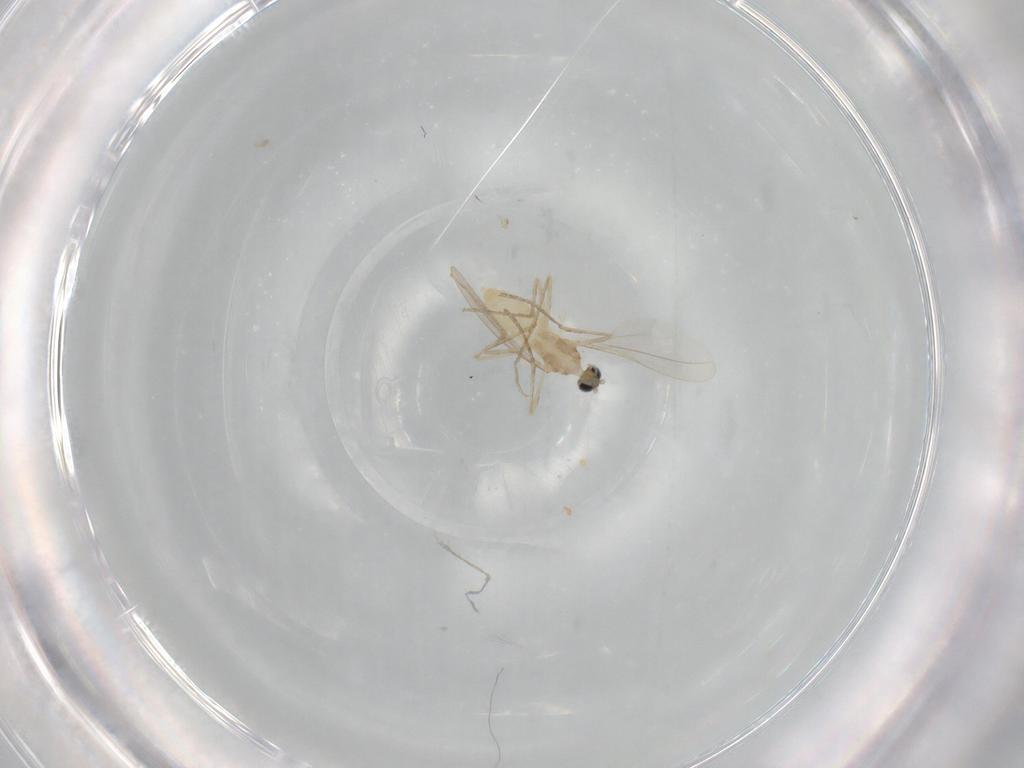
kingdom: Animalia
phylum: Arthropoda
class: Insecta
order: Diptera
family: Cecidomyiidae
